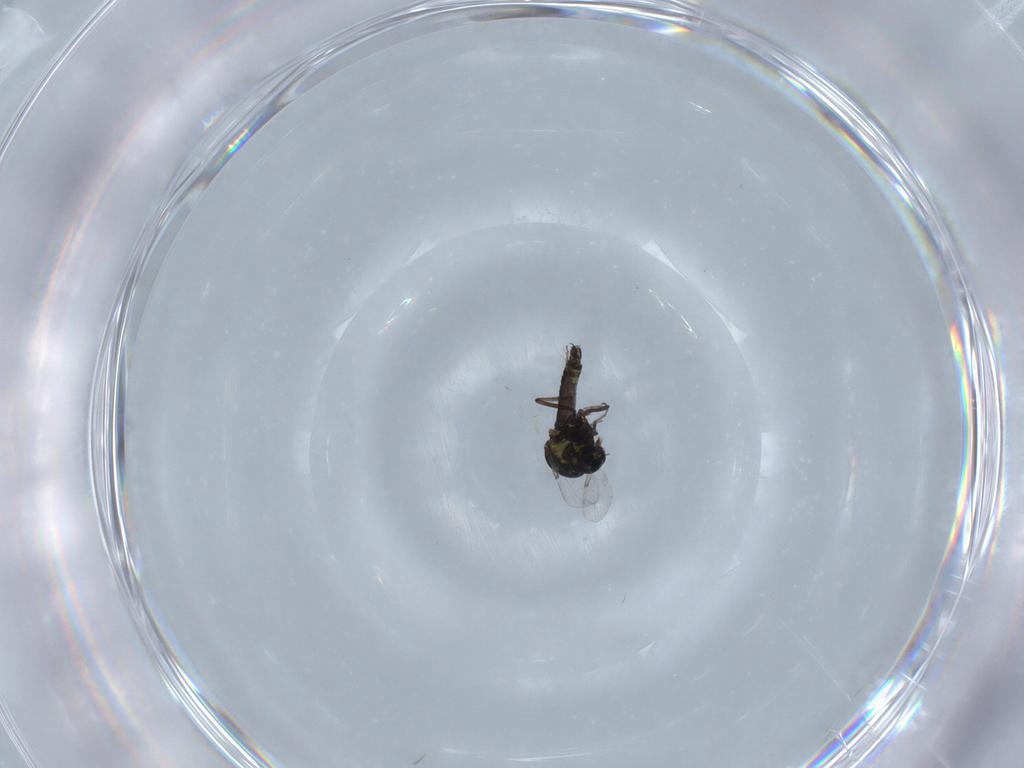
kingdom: Animalia
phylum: Arthropoda
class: Insecta
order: Diptera
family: Ceratopogonidae
